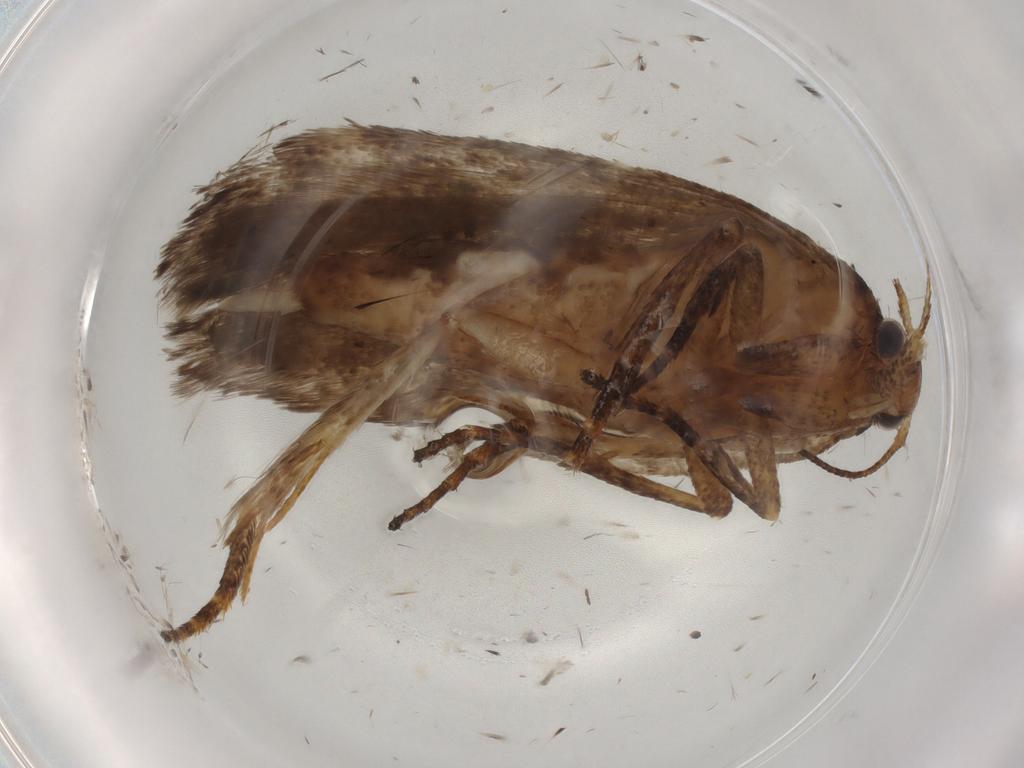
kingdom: Animalia
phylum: Arthropoda
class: Insecta
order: Lepidoptera
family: Gelechiidae
